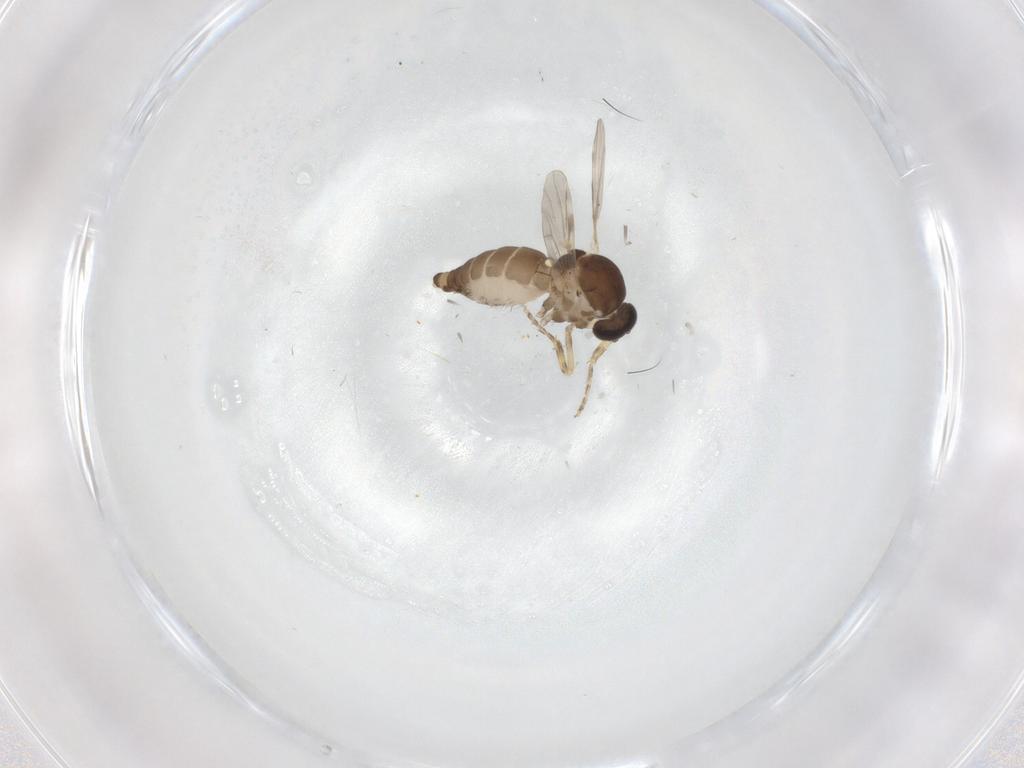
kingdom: Animalia
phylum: Arthropoda
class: Insecta
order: Diptera
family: Ceratopogonidae
